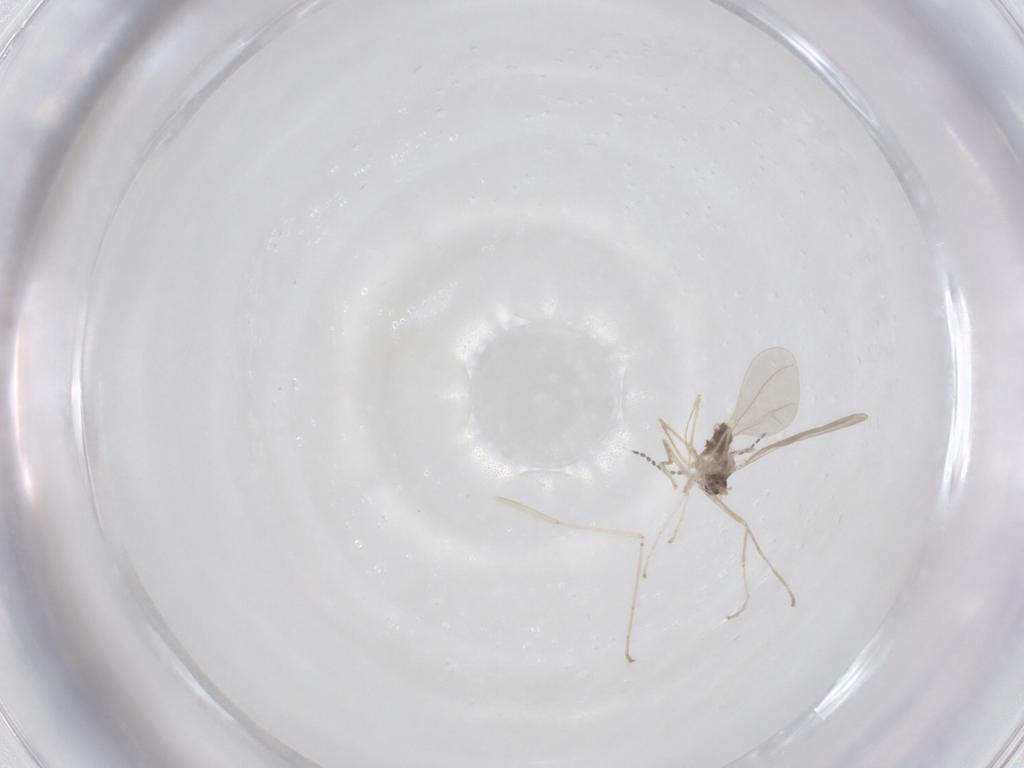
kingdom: Animalia
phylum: Arthropoda
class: Insecta
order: Diptera
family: Cecidomyiidae
